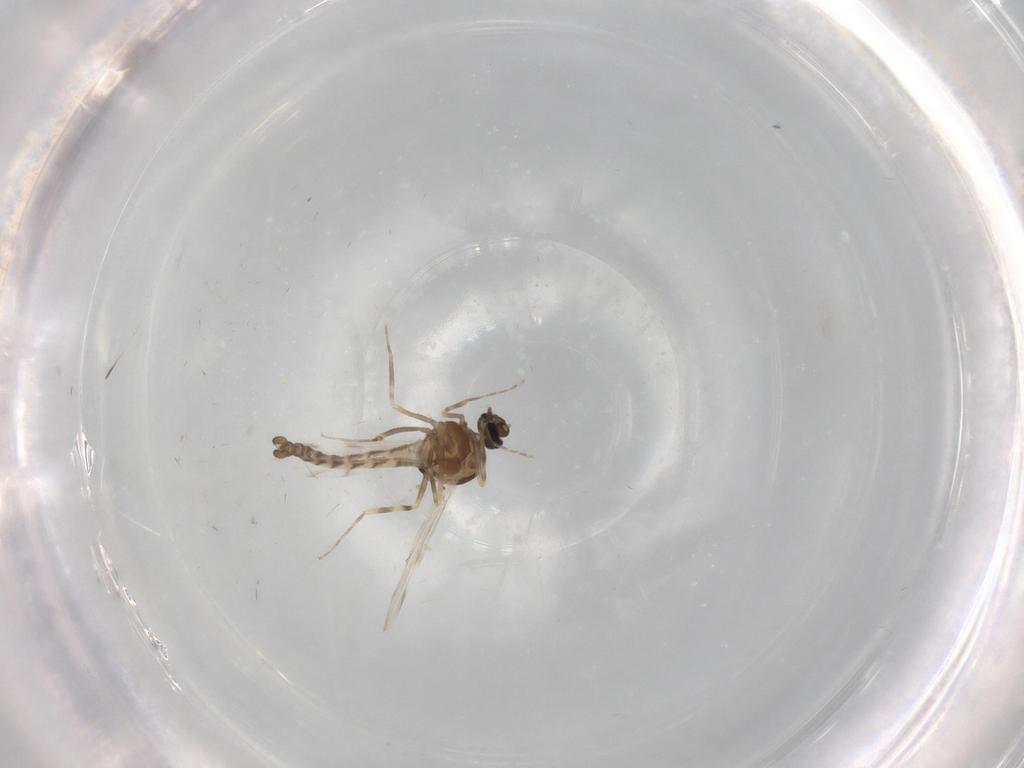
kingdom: Animalia
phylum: Arthropoda
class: Insecta
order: Diptera
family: Ceratopogonidae
